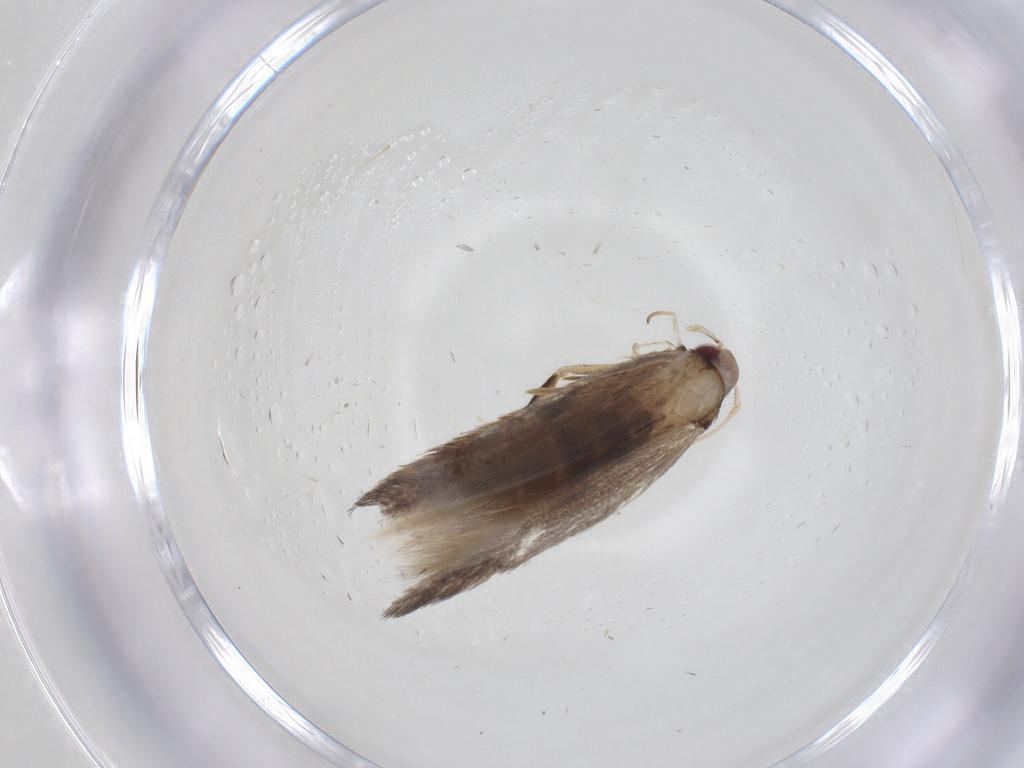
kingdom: Animalia
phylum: Arthropoda
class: Insecta
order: Lepidoptera
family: Cosmopterigidae
